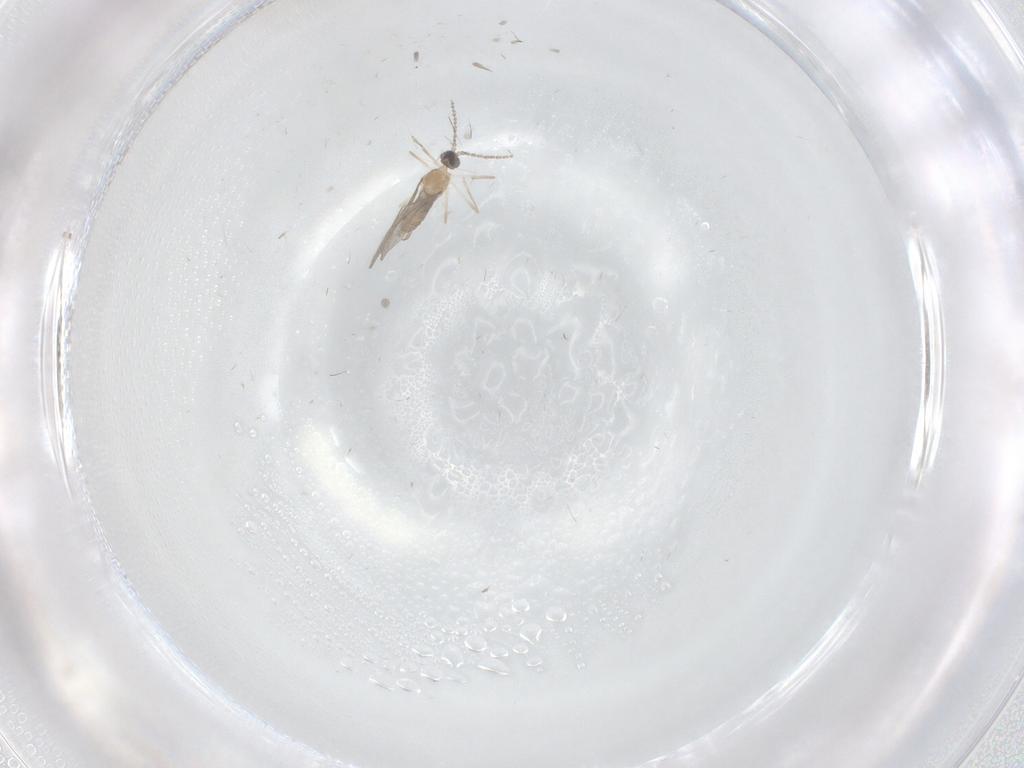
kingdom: Animalia
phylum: Arthropoda
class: Insecta
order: Diptera
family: Cecidomyiidae
